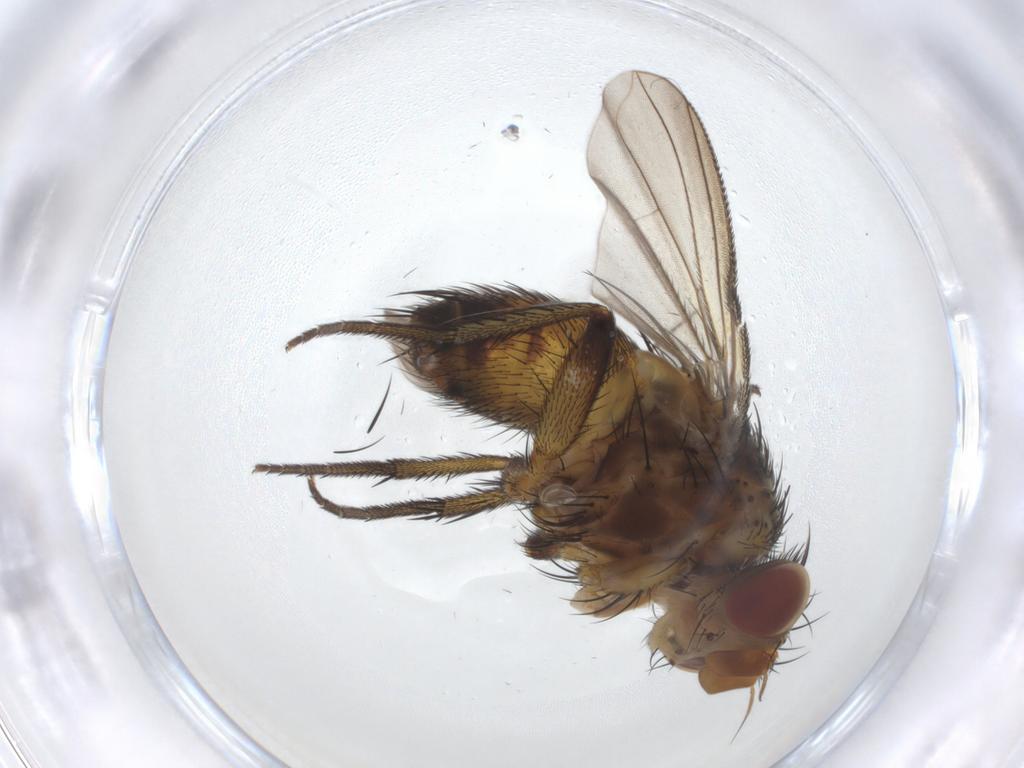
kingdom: Animalia
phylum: Arthropoda
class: Insecta
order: Diptera
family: Tachinidae
